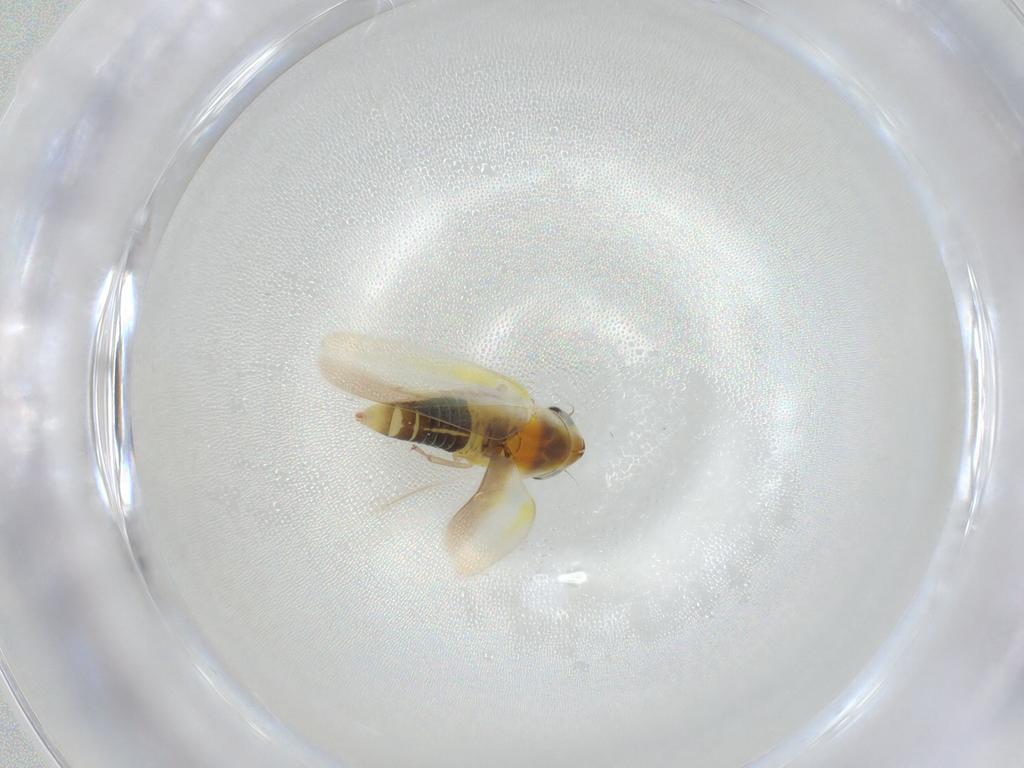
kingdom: Animalia
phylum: Arthropoda
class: Insecta
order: Hemiptera
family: Cicadellidae
